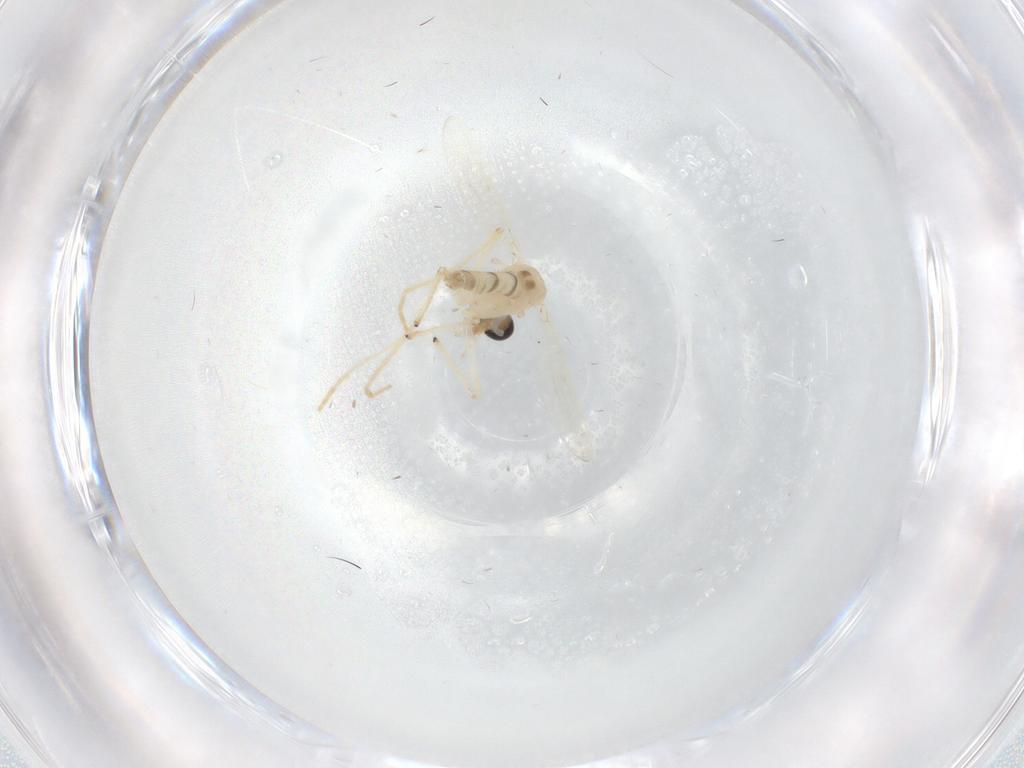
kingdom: Animalia
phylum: Arthropoda
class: Insecta
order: Diptera
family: Chironomidae
